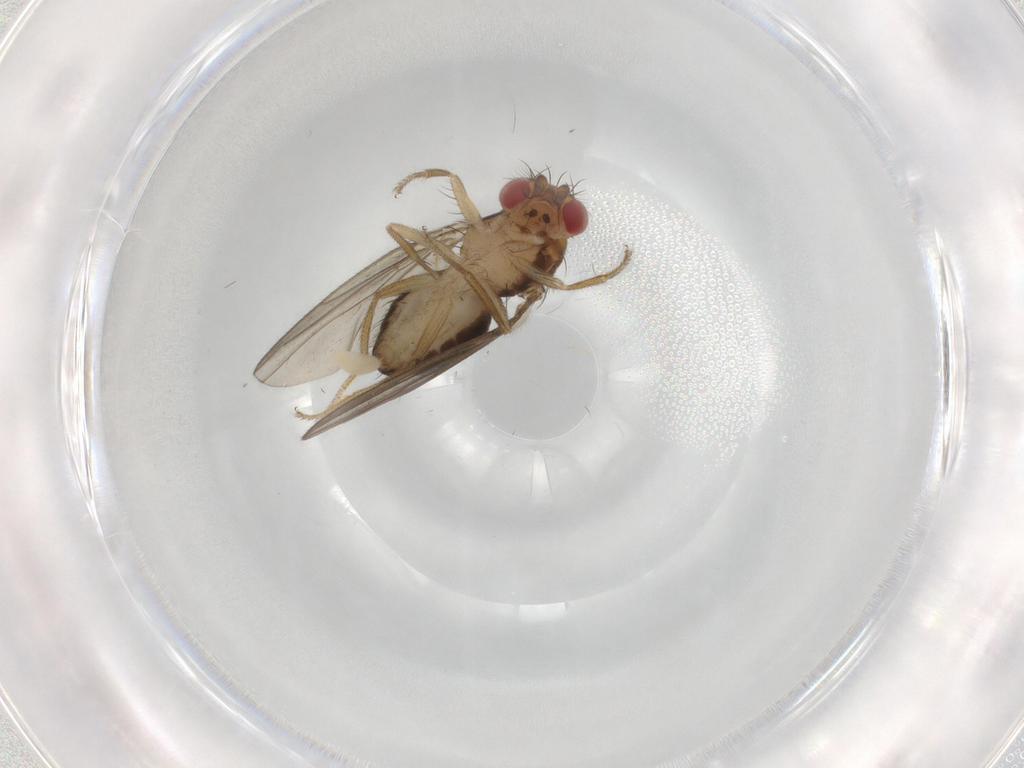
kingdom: Animalia
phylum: Arthropoda
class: Insecta
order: Diptera
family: Drosophilidae
